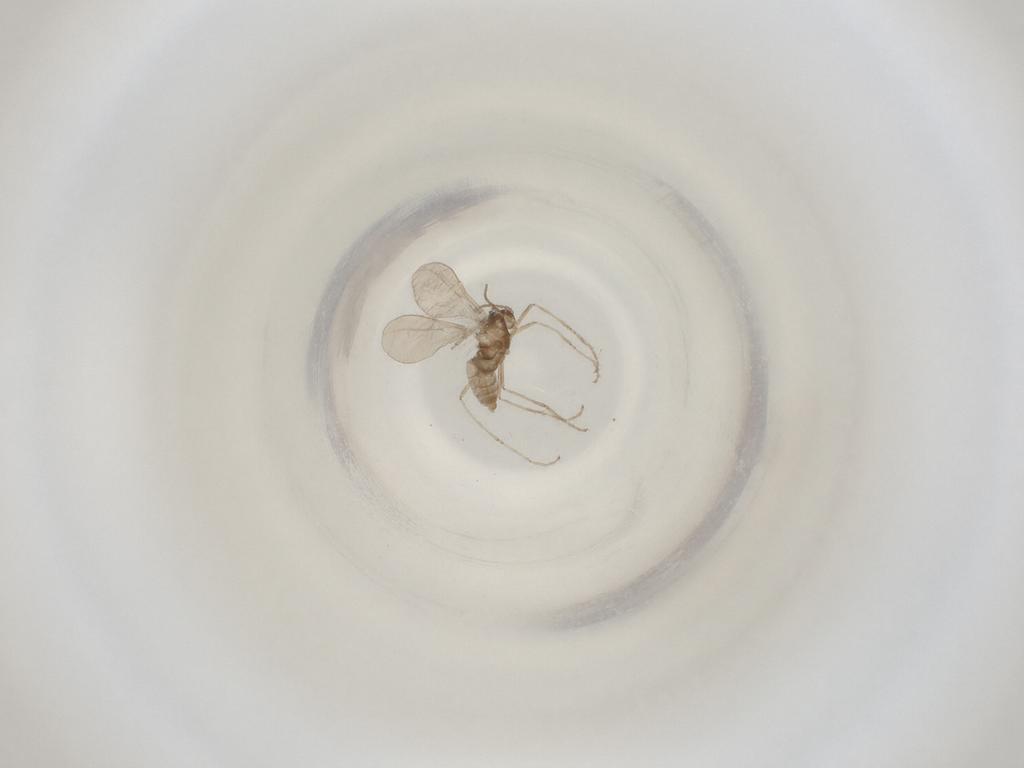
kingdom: Animalia
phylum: Arthropoda
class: Insecta
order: Diptera
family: Cecidomyiidae
